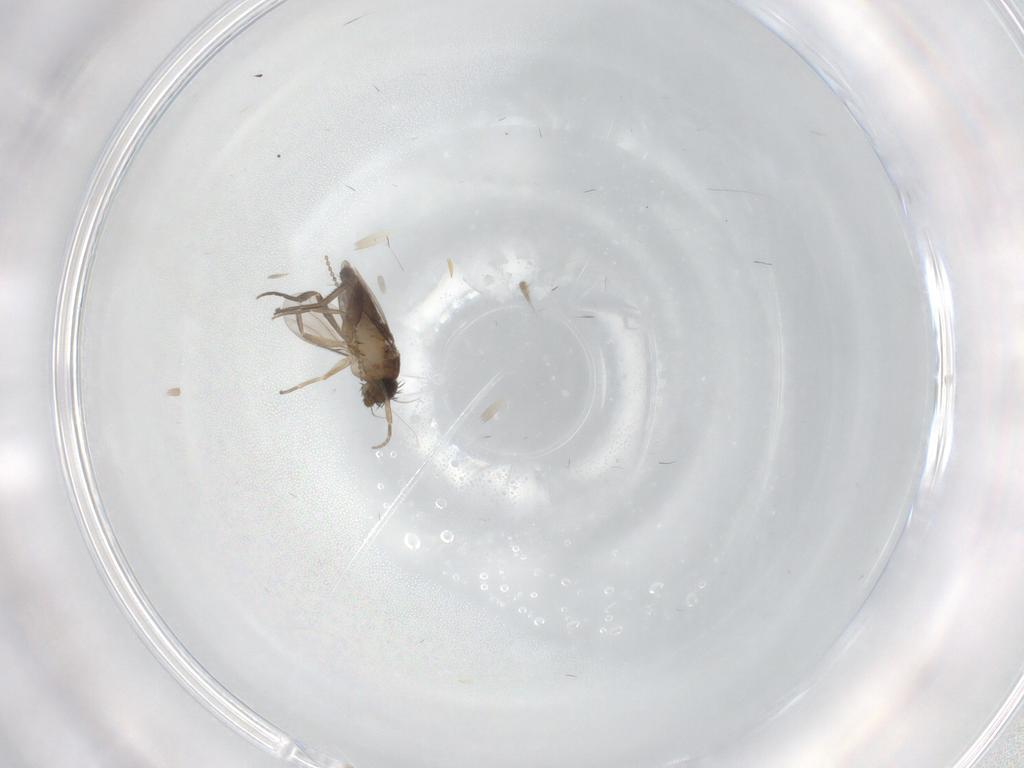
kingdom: Animalia
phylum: Arthropoda
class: Insecta
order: Diptera
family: Phoridae
